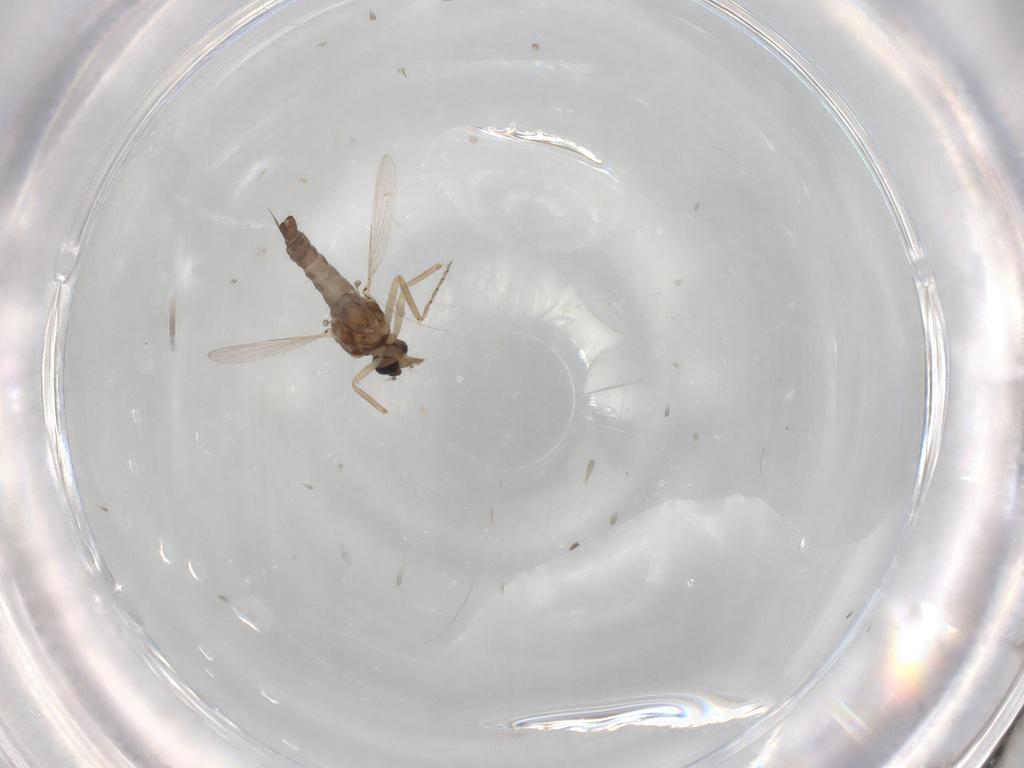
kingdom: Animalia
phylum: Arthropoda
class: Insecta
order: Diptera
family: Ceratopogonidae
